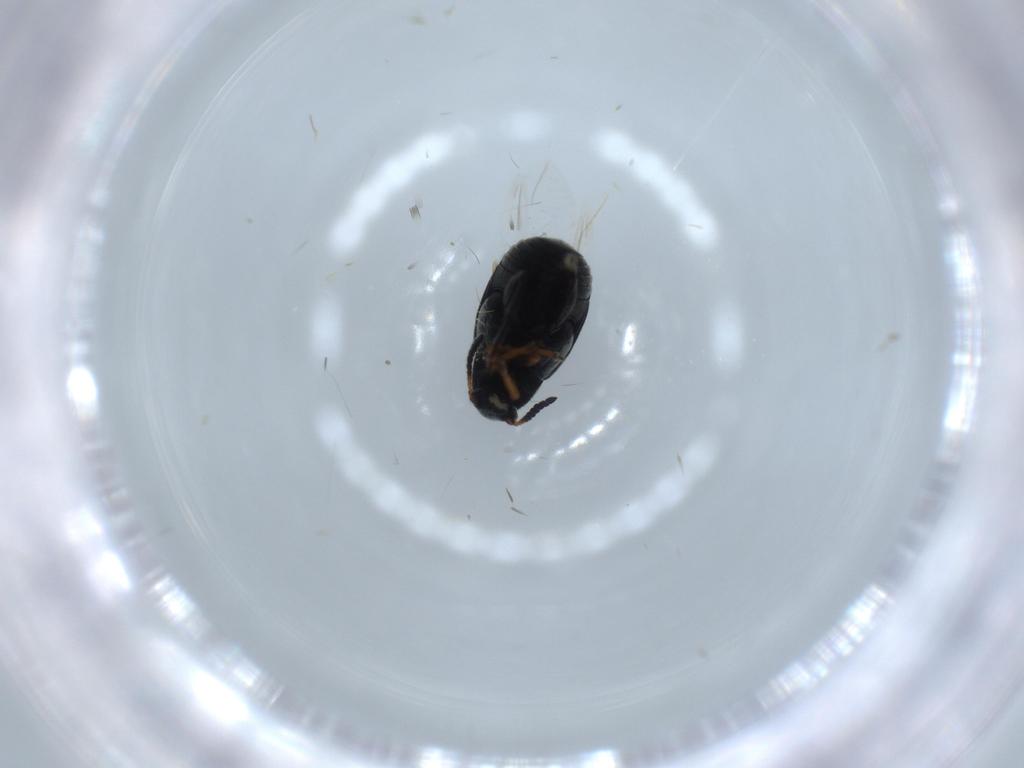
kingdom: Animalia
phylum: Arthropoda
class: Insecta
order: Coleoptera
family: Chrysomelidae
